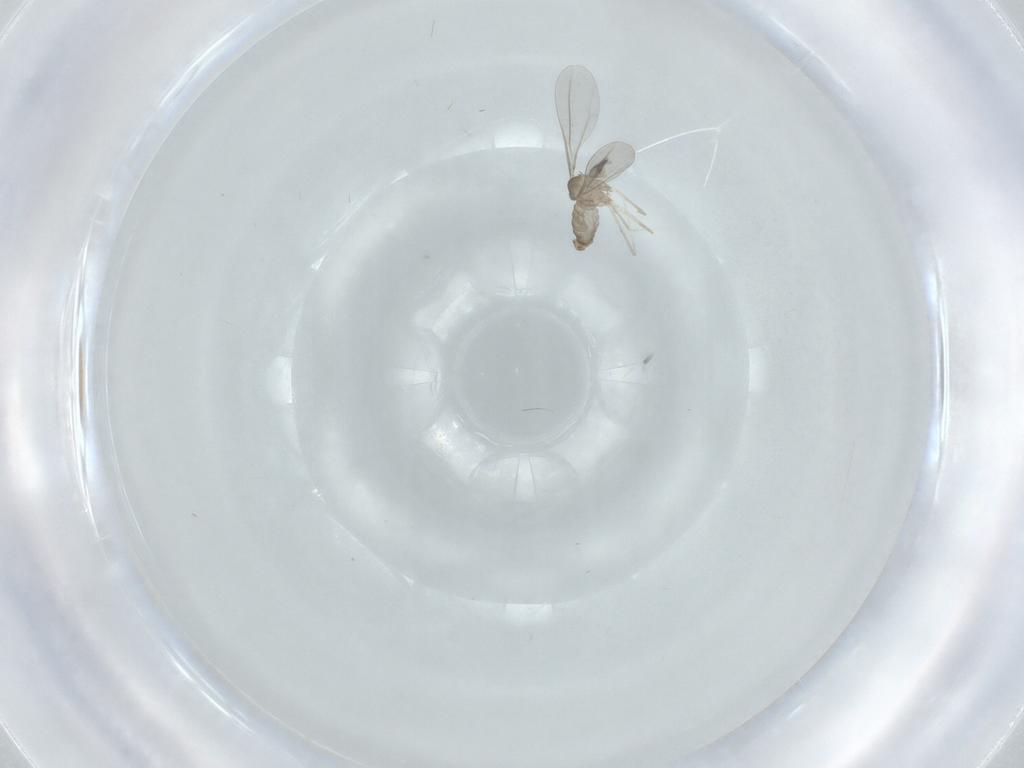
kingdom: Animalia
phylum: Arthropoda
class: Insecta
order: Diptera
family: Cecidomyiidae
